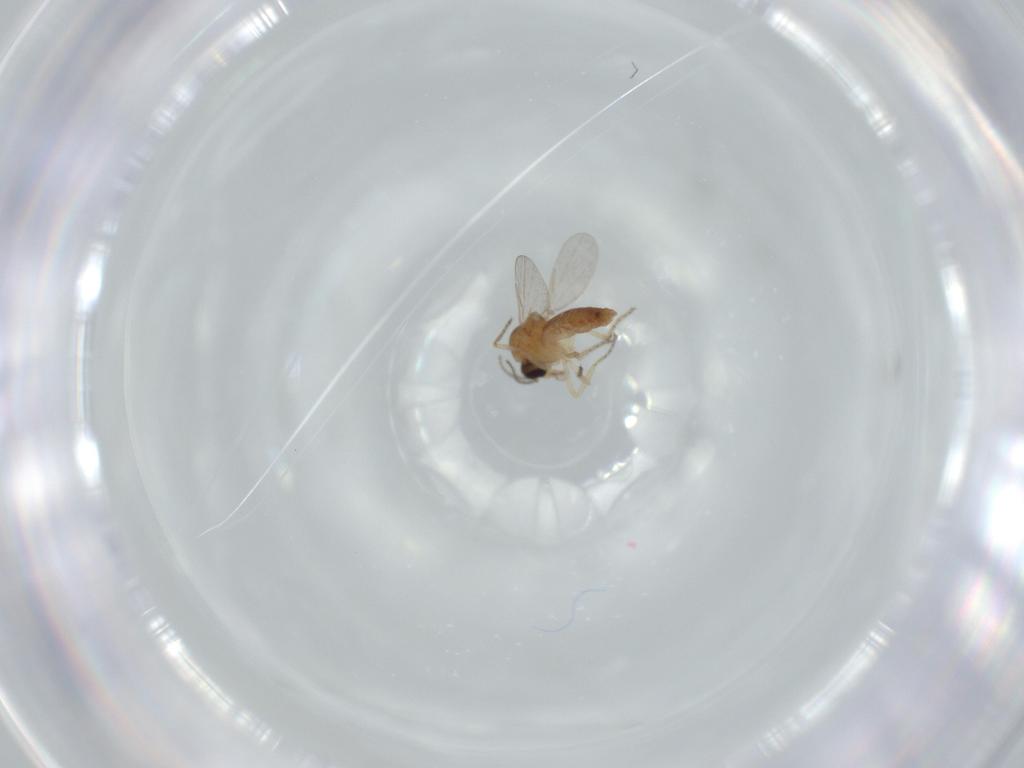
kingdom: Animalia
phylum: Arthropoda
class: Insecta
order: Diptera
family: Ceratopogonidae
